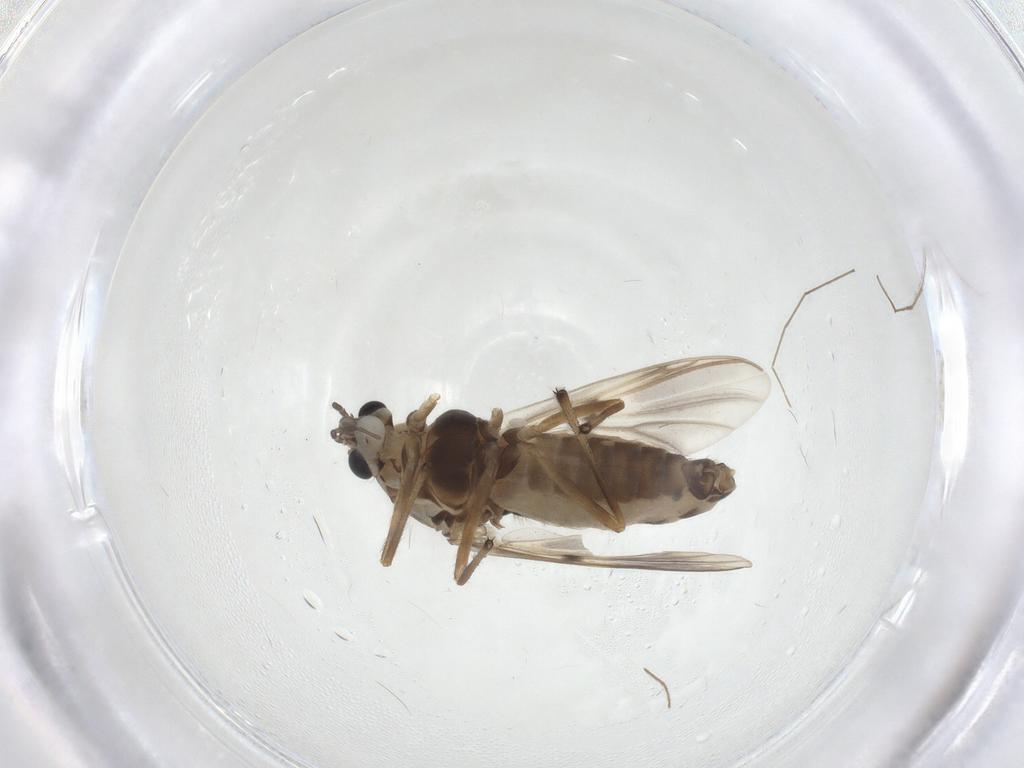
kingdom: Animalia
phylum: Arthropoda
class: Insecta
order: Diptera
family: Chironomidae
